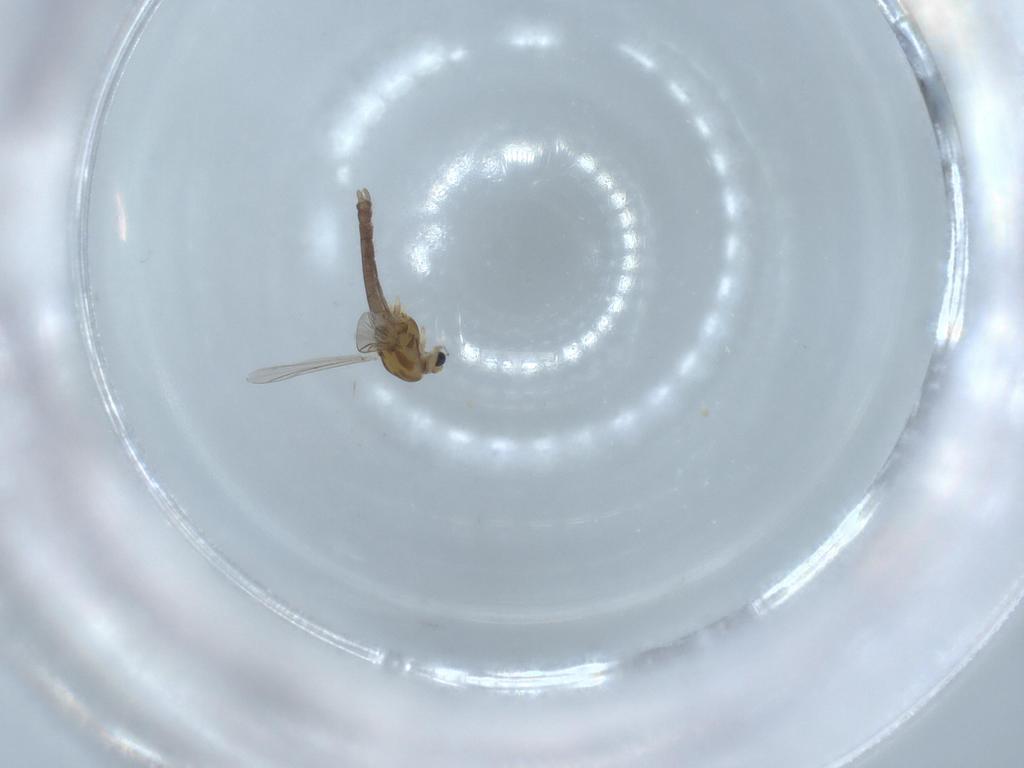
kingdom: Animalia
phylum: Arthropoda
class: Insecta
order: Diptera
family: Chironomidae
